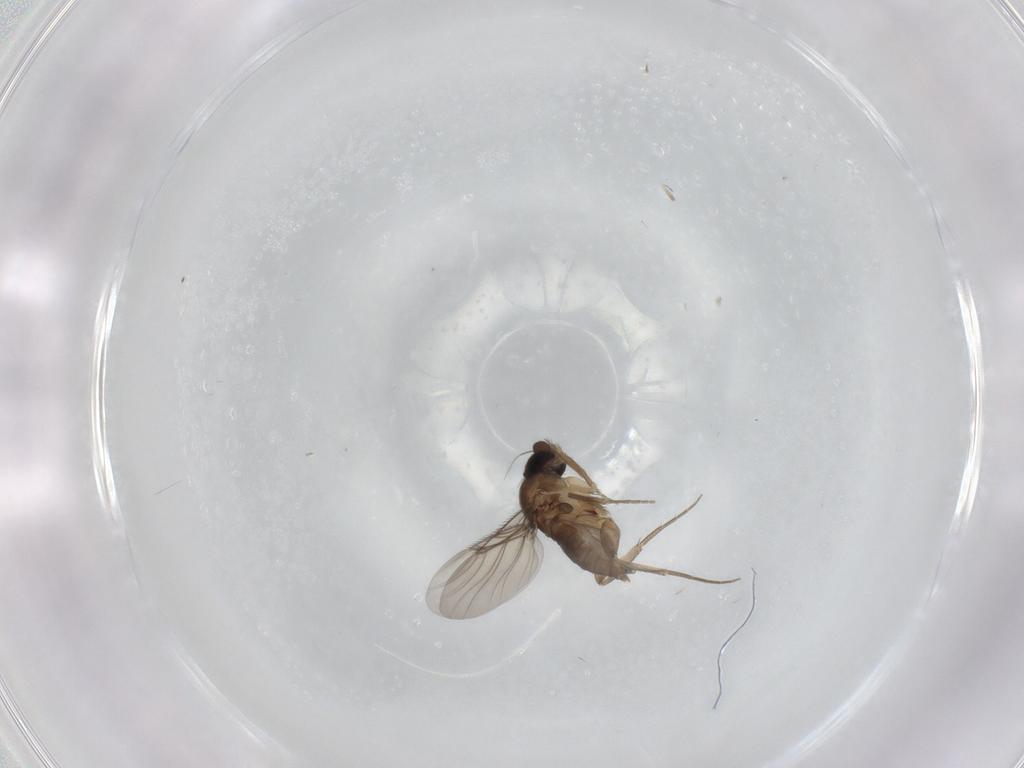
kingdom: Animalia
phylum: Arthropoda
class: Insecta
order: Diptera
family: Phoridae
